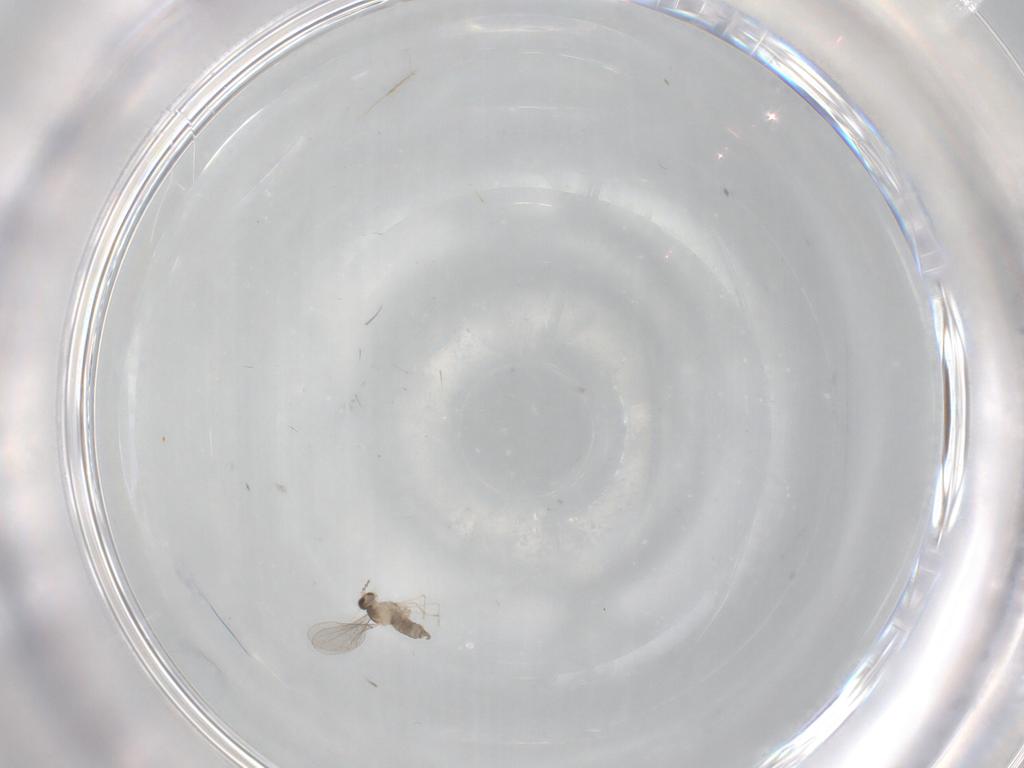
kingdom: Animalia
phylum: Arthropoda
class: Insecta
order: Diptera
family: Cecidomyiidae
